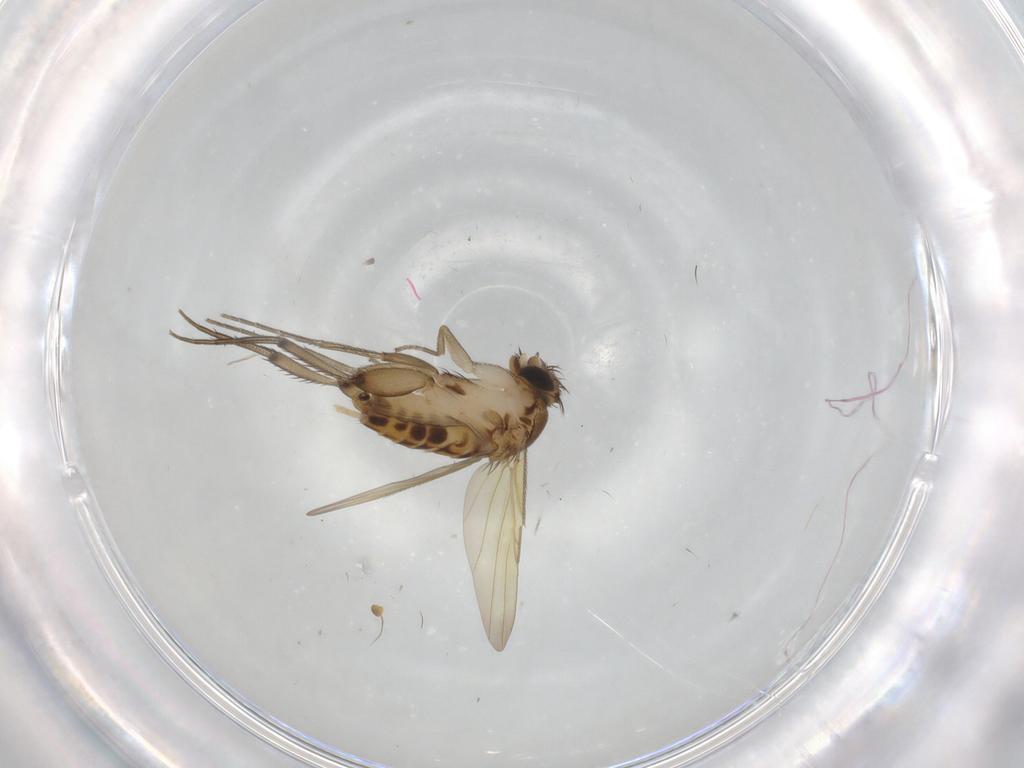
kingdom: Animalia
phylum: Arthropoda
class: Insecta
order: Diptera
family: Phoridae
